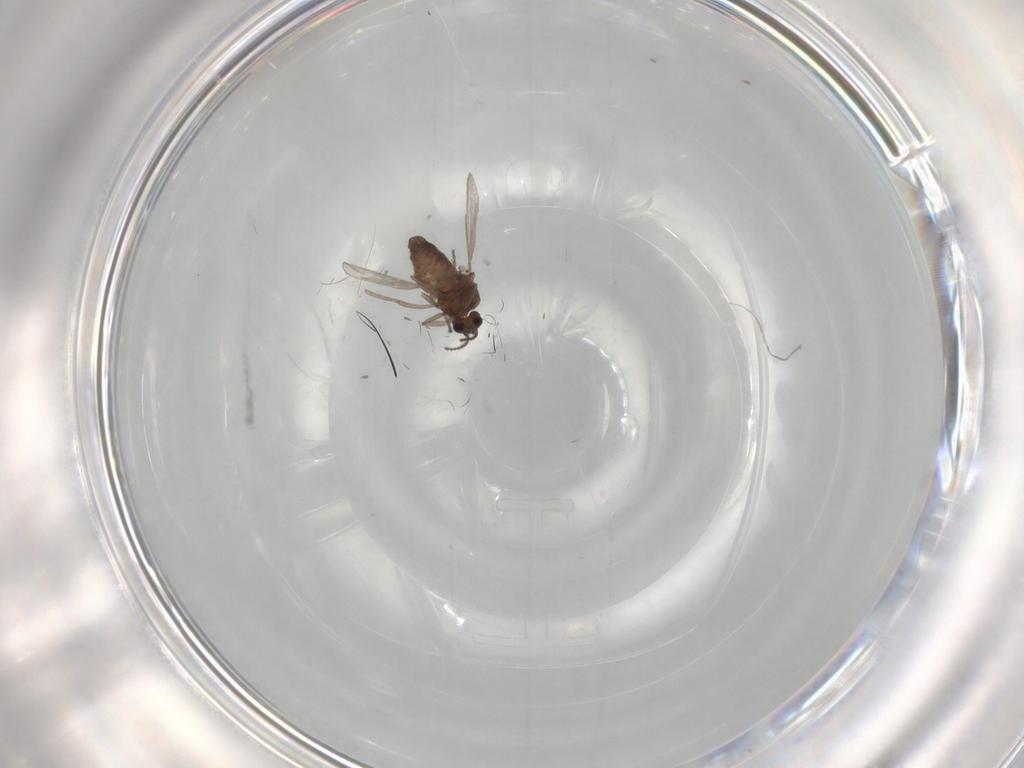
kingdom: Animalia
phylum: Arthropoda
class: Insecta
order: Diptera
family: Ceratopogonidae
